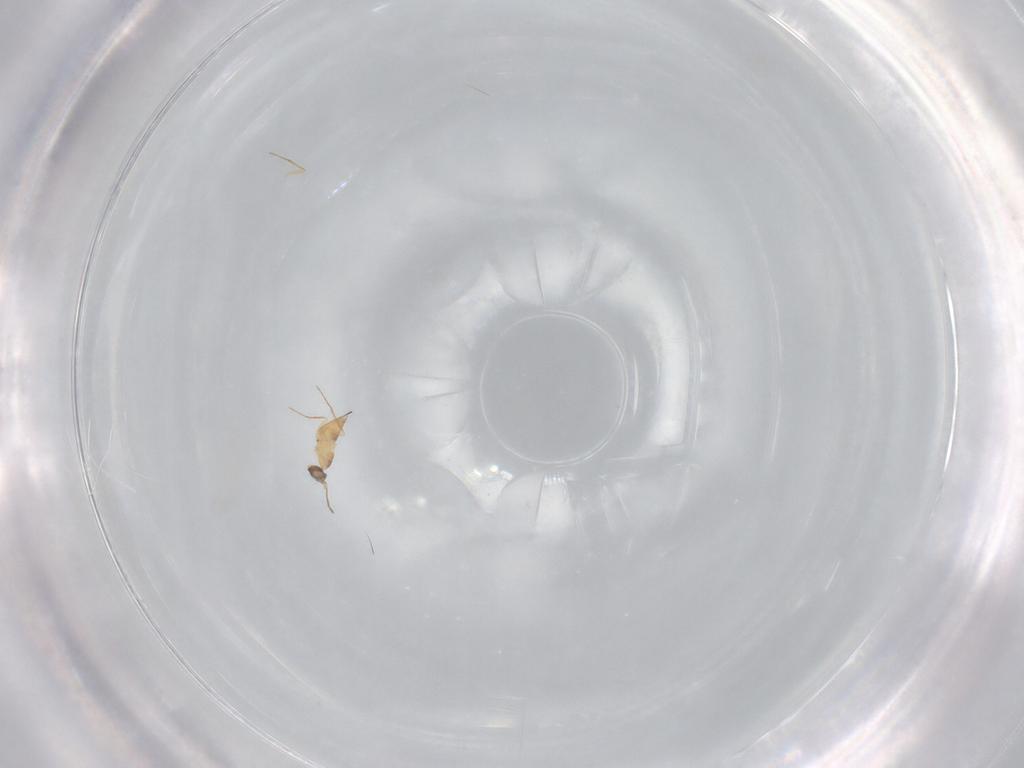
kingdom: Animalia
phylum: Arthropoda
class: Insecta
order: Hymenoptera
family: Mymaridae
